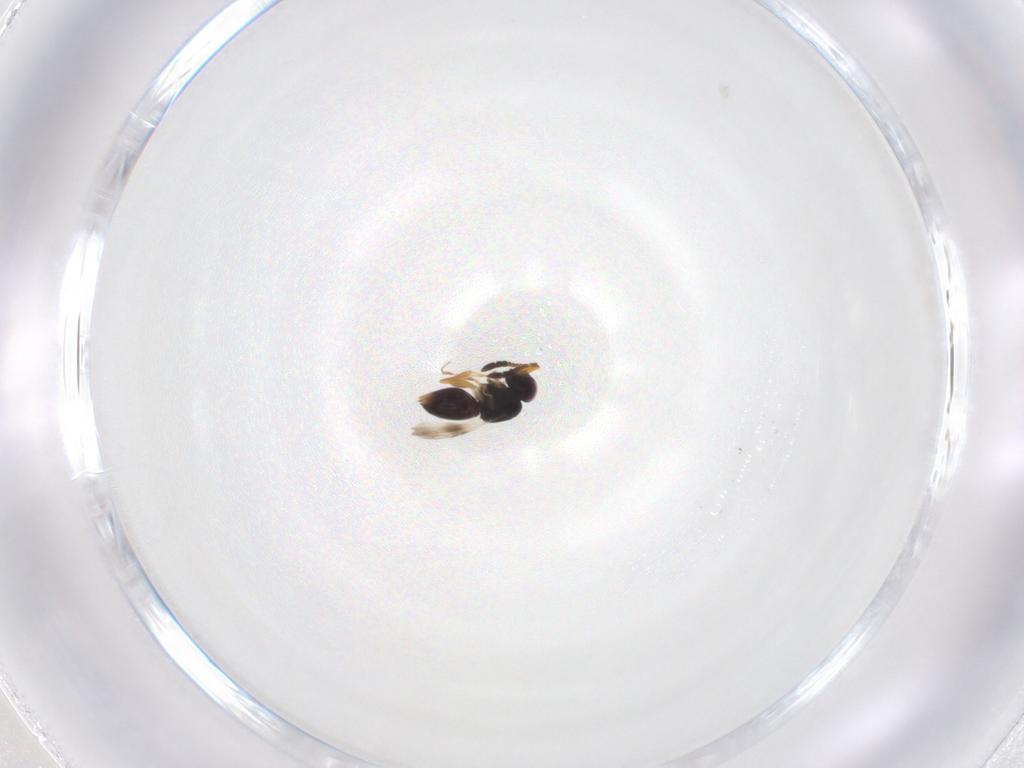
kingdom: Animalia
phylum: Arthropoda
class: Insecta
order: Hymenoptera
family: Ceraphronidae
